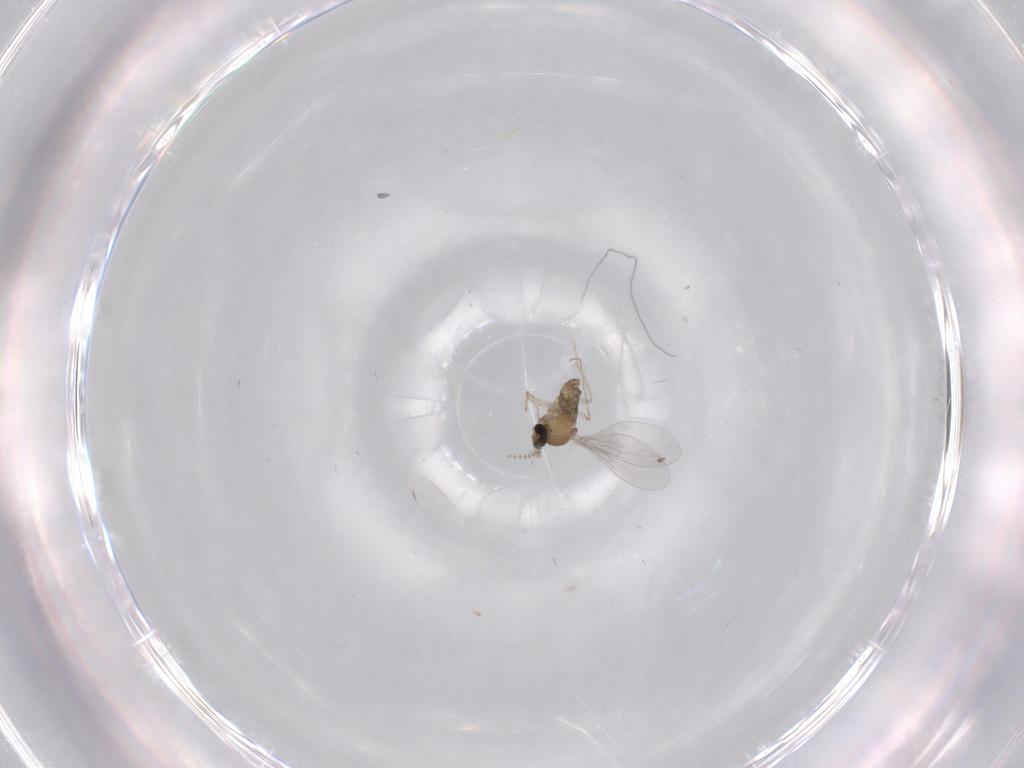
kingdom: Animalia
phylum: Arthropoda
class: Insecta
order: Diptera
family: Cecidomyiidae
